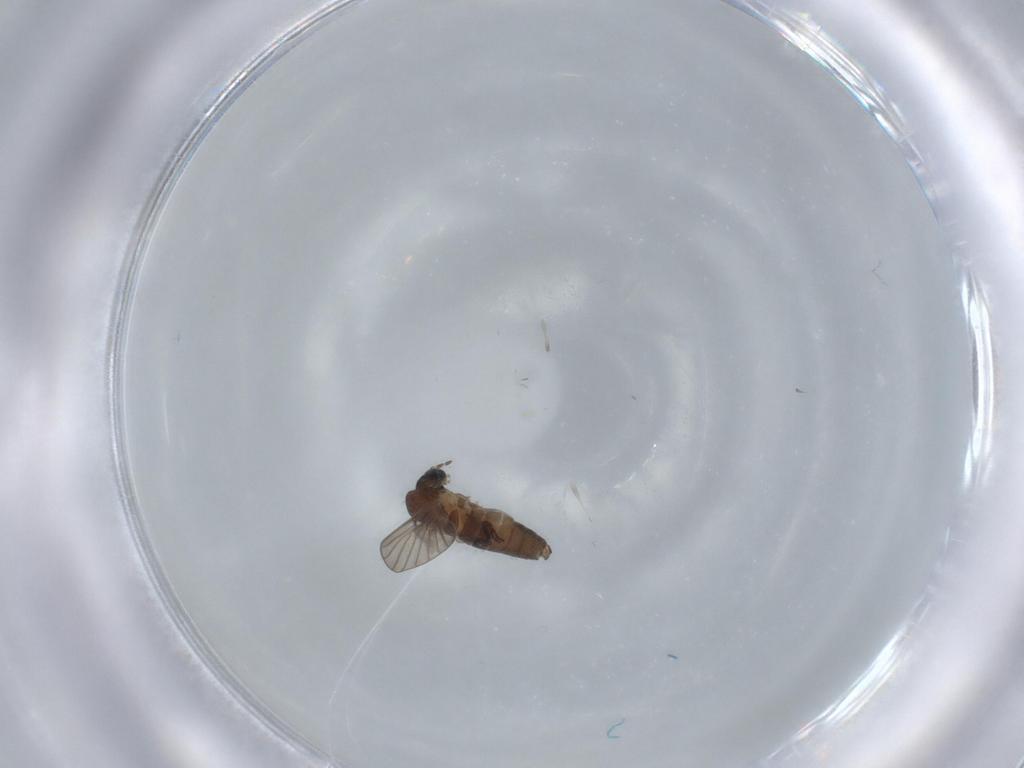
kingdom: Animalia
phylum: Arthropoda
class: Insecta
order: Diptera
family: Psychodidae
